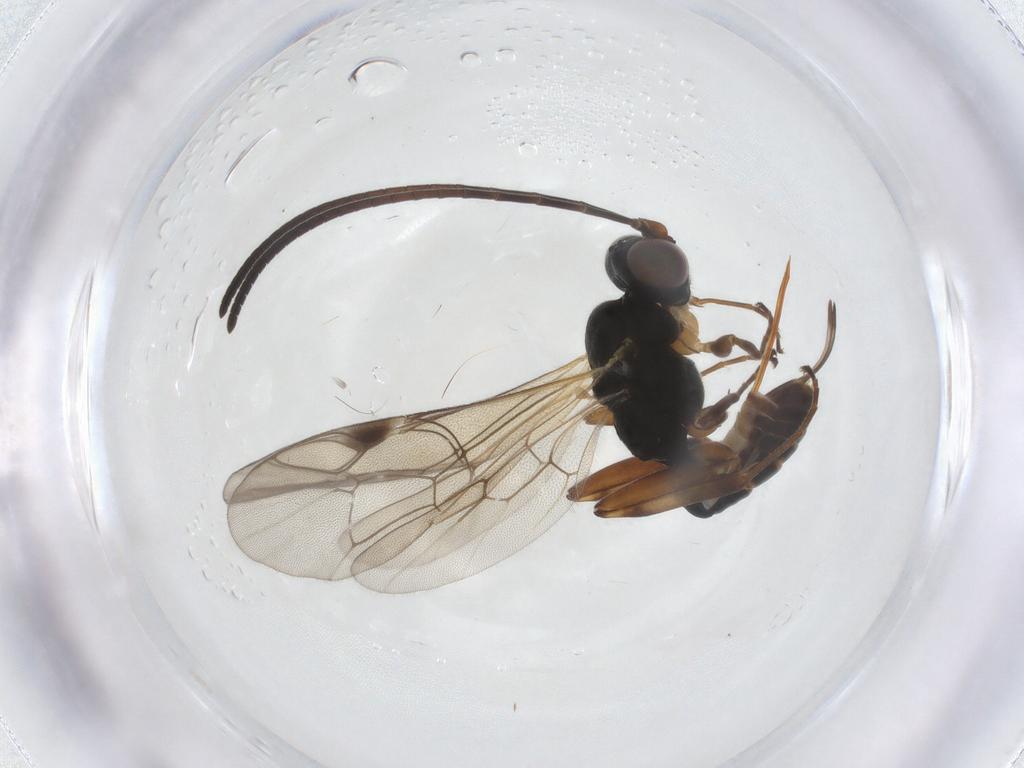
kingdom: Animalia
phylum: Arthropoda
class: Insecta
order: Hymenoptera
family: Ichneumonidae
